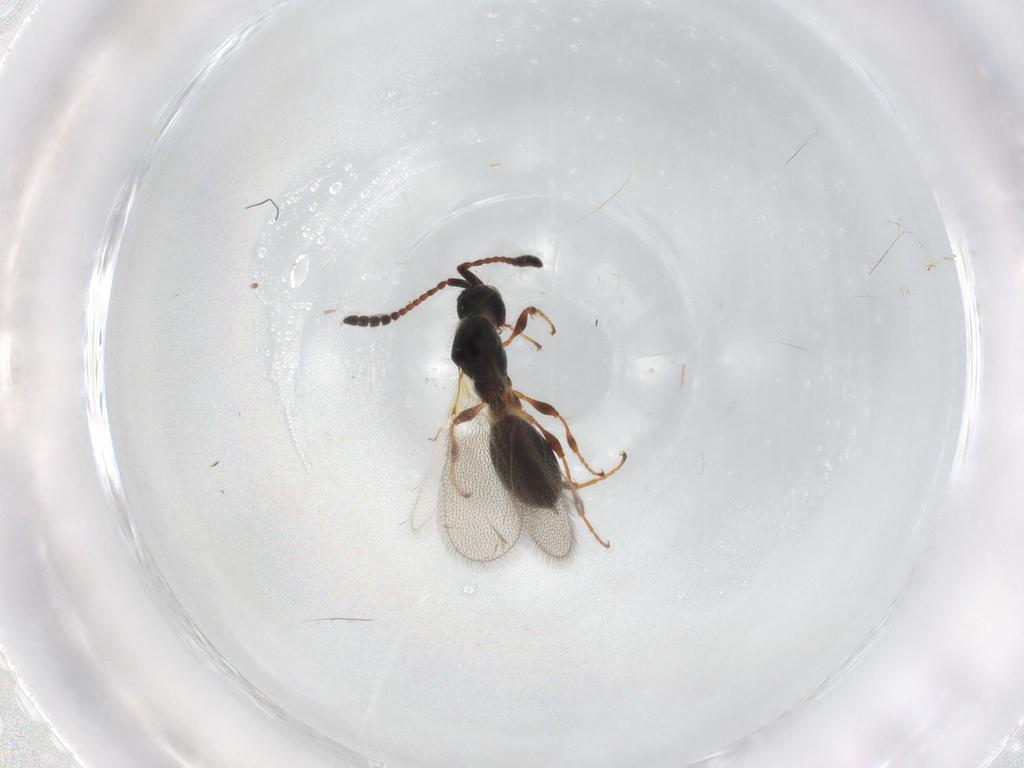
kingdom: Animalia
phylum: Arthropoda
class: Insecta
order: Hymenoptera
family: Diapriidae
